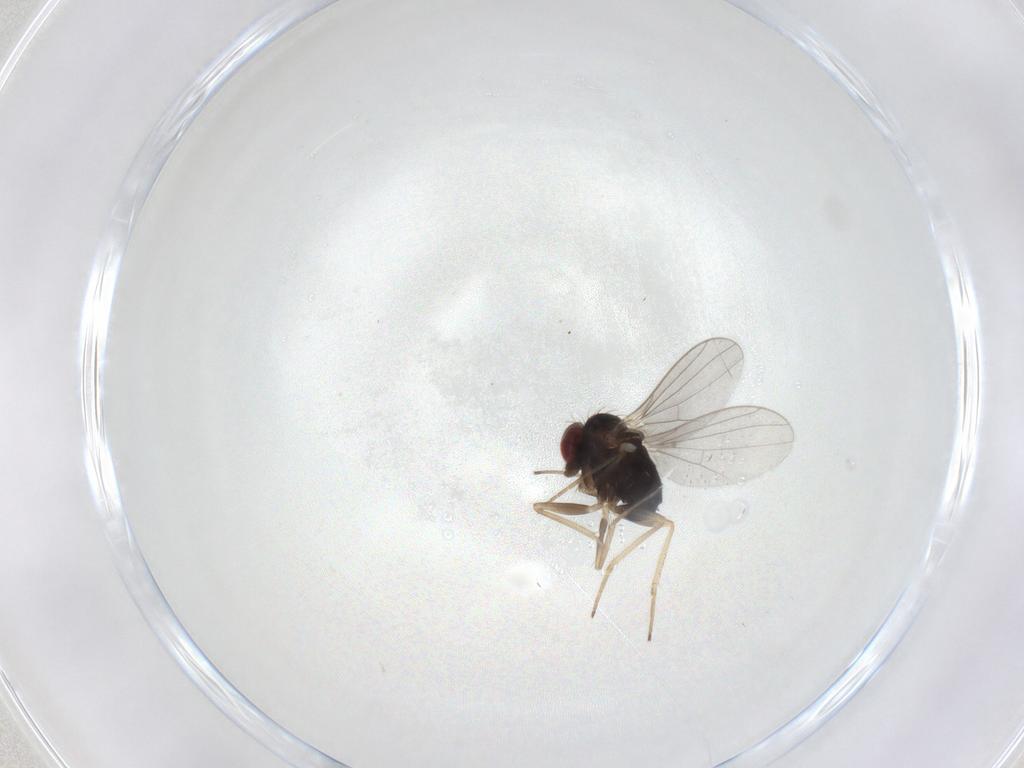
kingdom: Animalia
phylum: Arthropoda
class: Insecta
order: Diptera
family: Dolichopodidae
